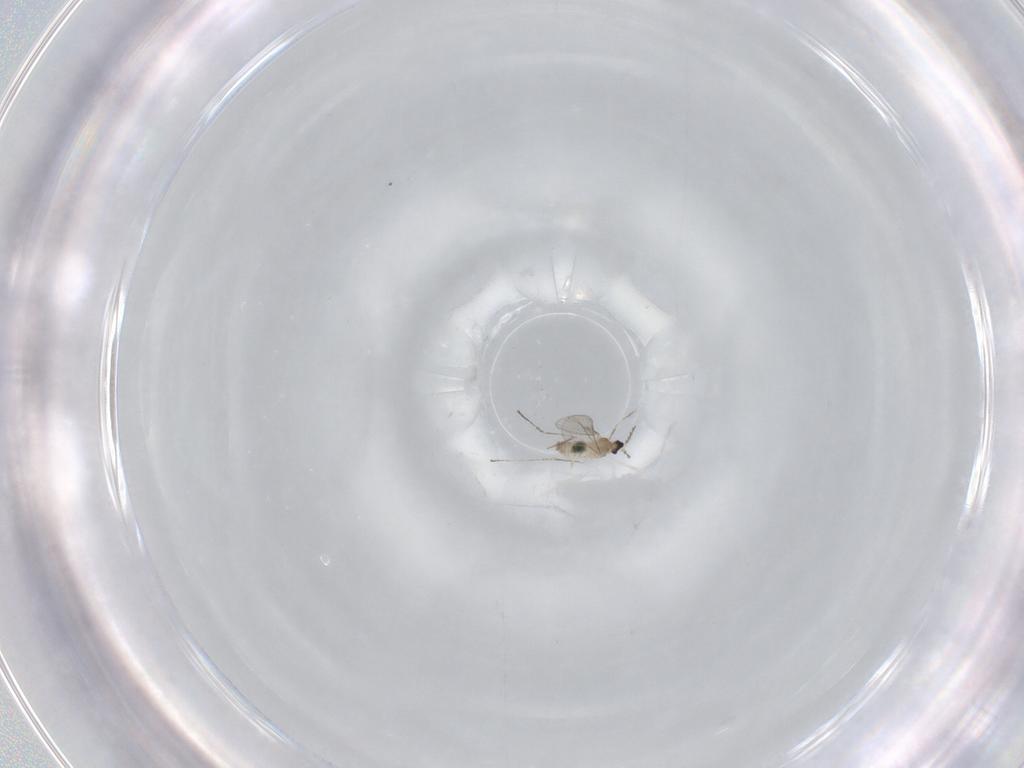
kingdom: Animalia
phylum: Arthropoda
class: Insecta
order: Diptera
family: Cecidomyiidae
